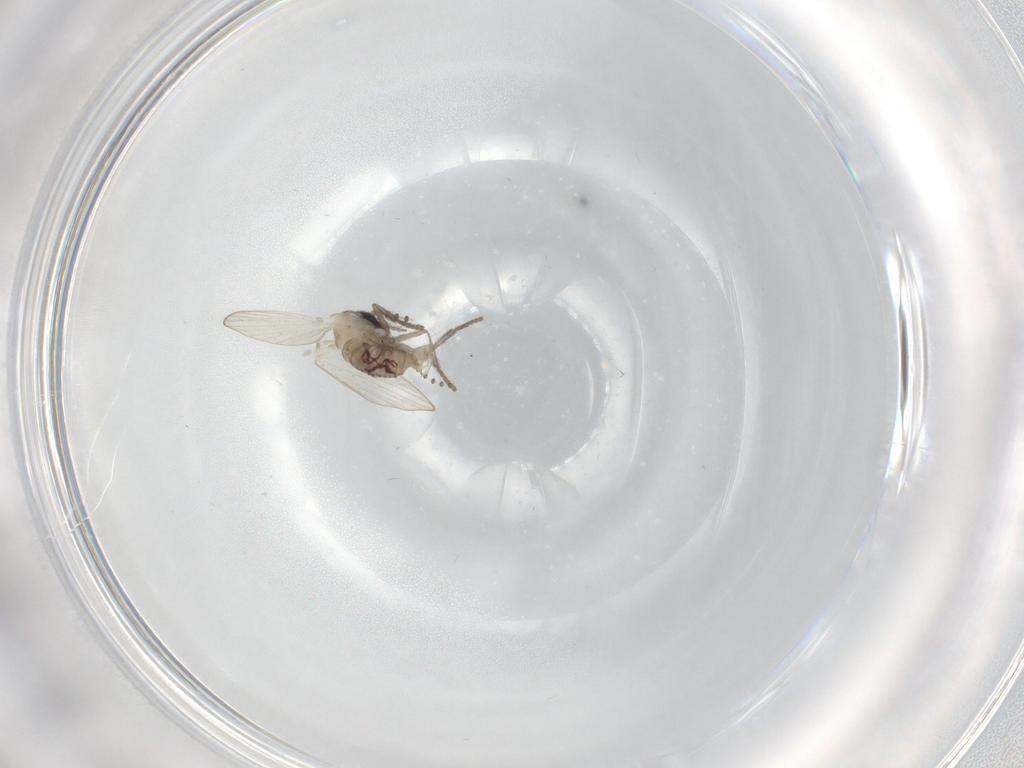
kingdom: Animalia
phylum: Arthropoda
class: Insecta
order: Diptera
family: Psychodidae
